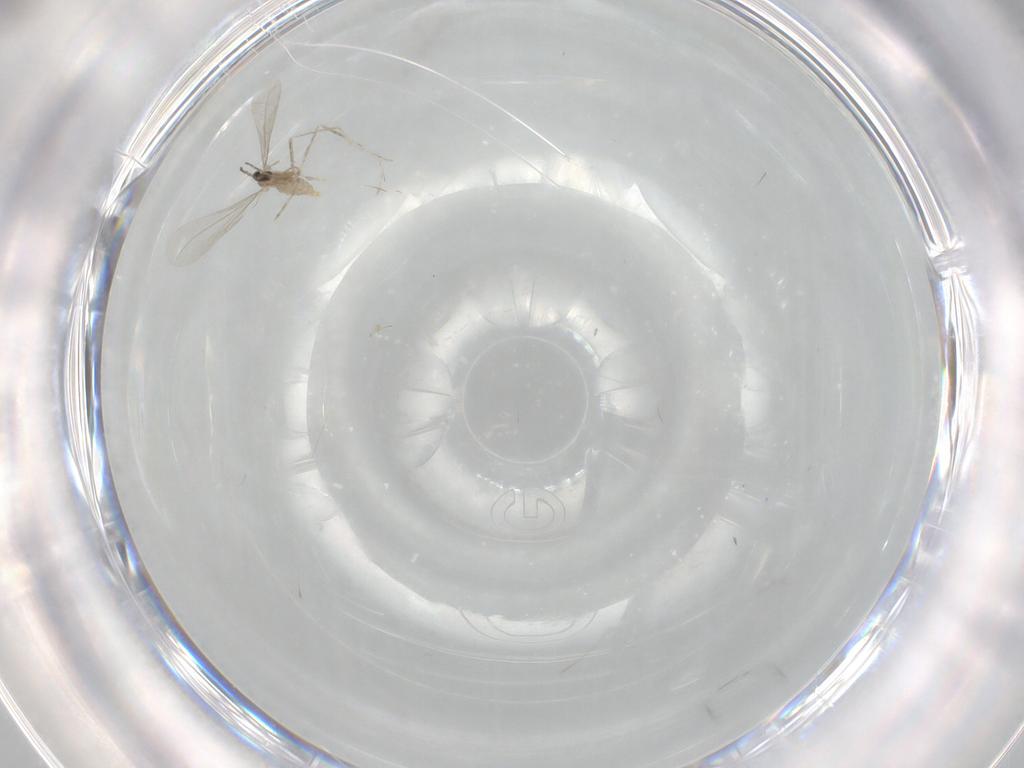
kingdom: Animalia
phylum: Arthropoda
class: Insecta
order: Diptera
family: Cecidomyiidae
